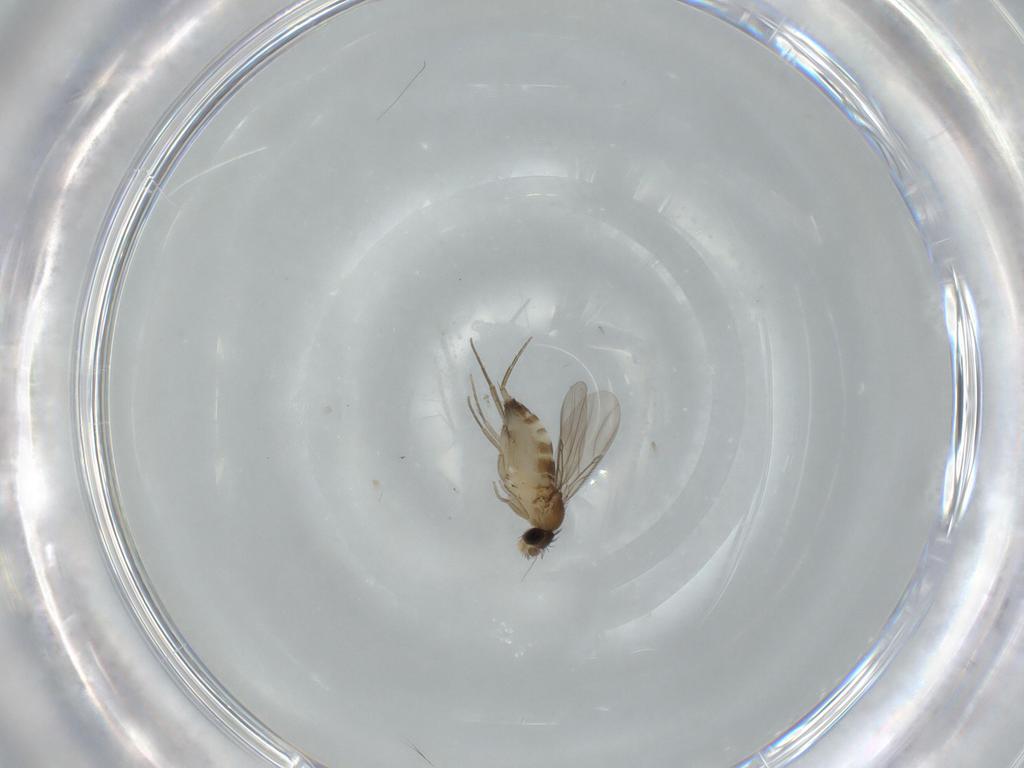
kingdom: Animalia
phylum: Arthropoda
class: Insecta
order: Diptera
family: Phoridae
